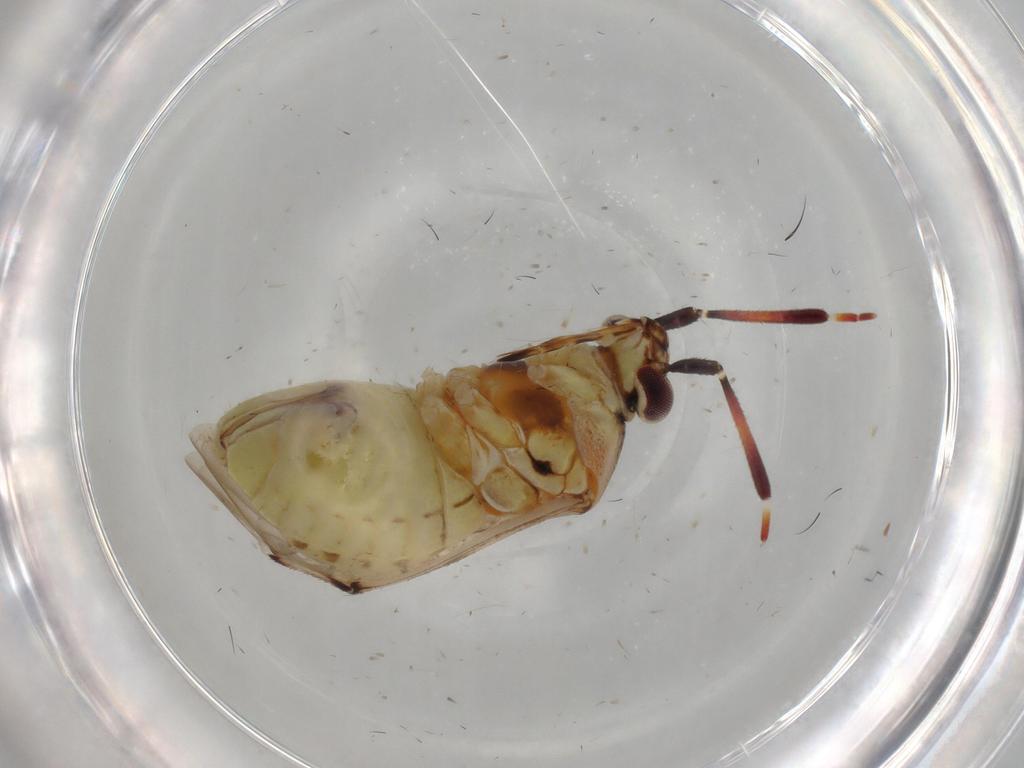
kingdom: Animalia
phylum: Arthropoda
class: Insecta
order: Hemiptera
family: Miridae
